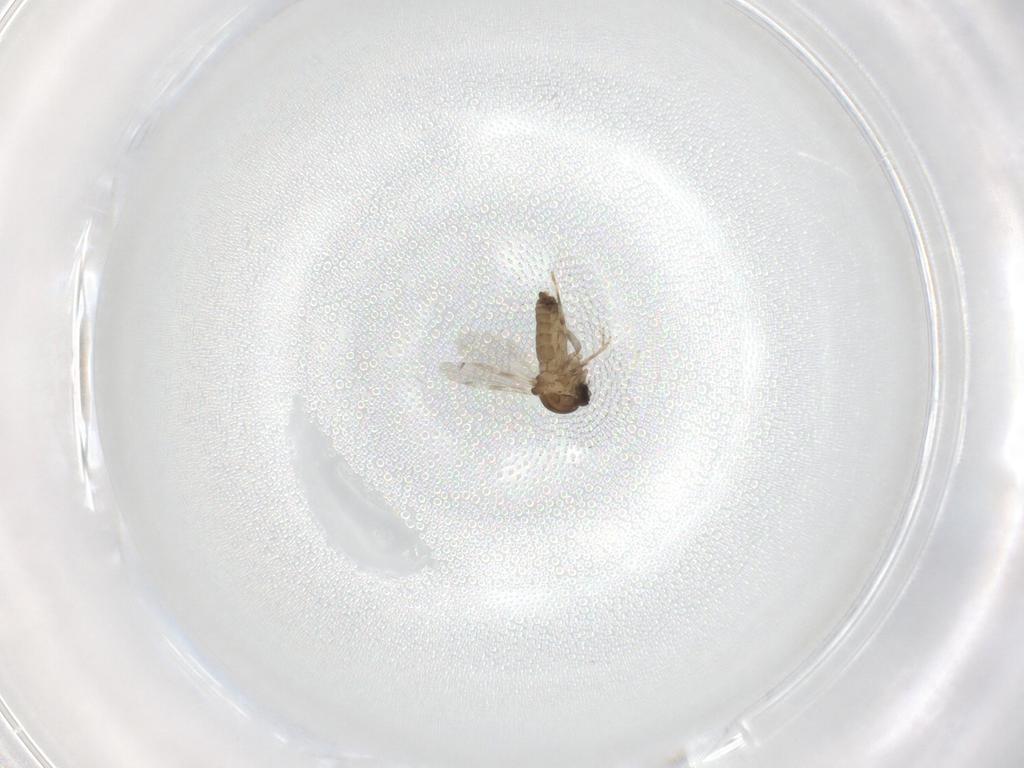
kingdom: Animalia
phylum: Arthropoda
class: Insecta
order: Diptera
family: Ceratopogonidae
